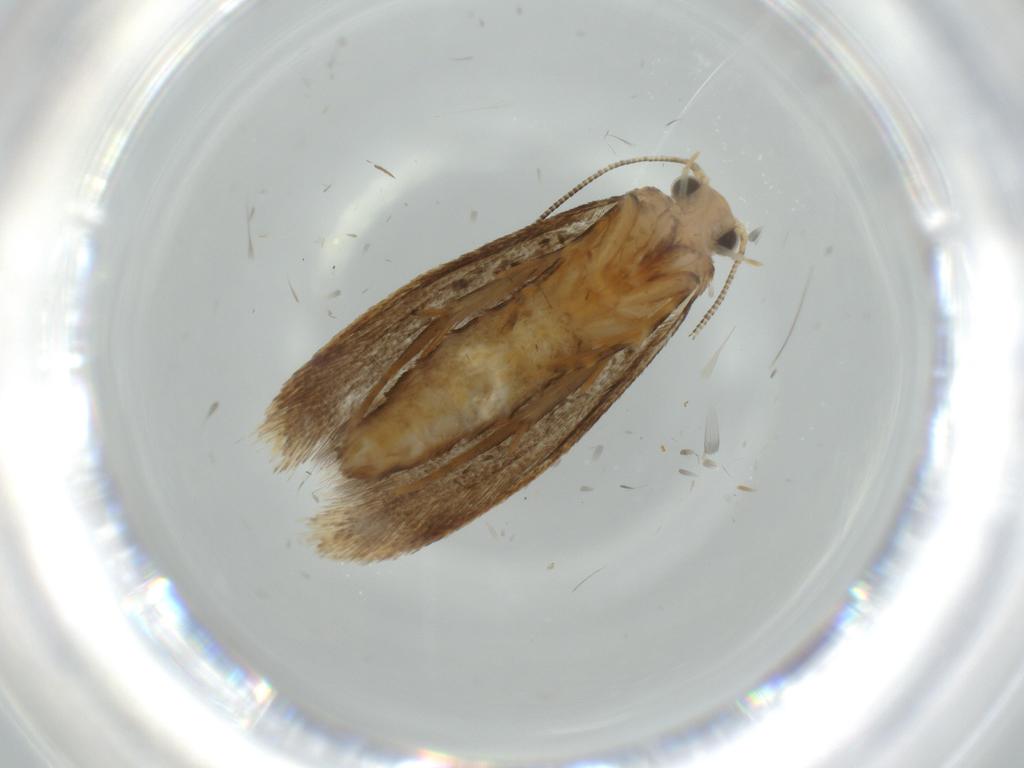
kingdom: Animalia
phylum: Arthropoda
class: Insecta
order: Lepidoptera
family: Tineidae
